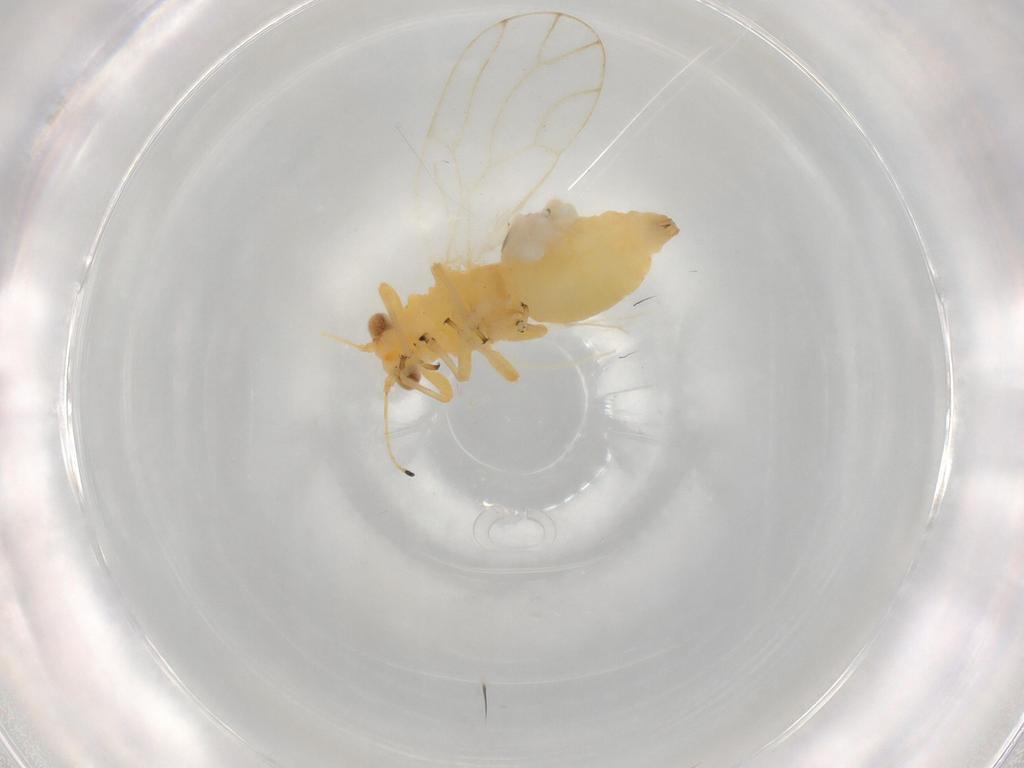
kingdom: Animalia
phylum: Arthropoda
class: Insecta
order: Hemiptera
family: Aphalaridae
